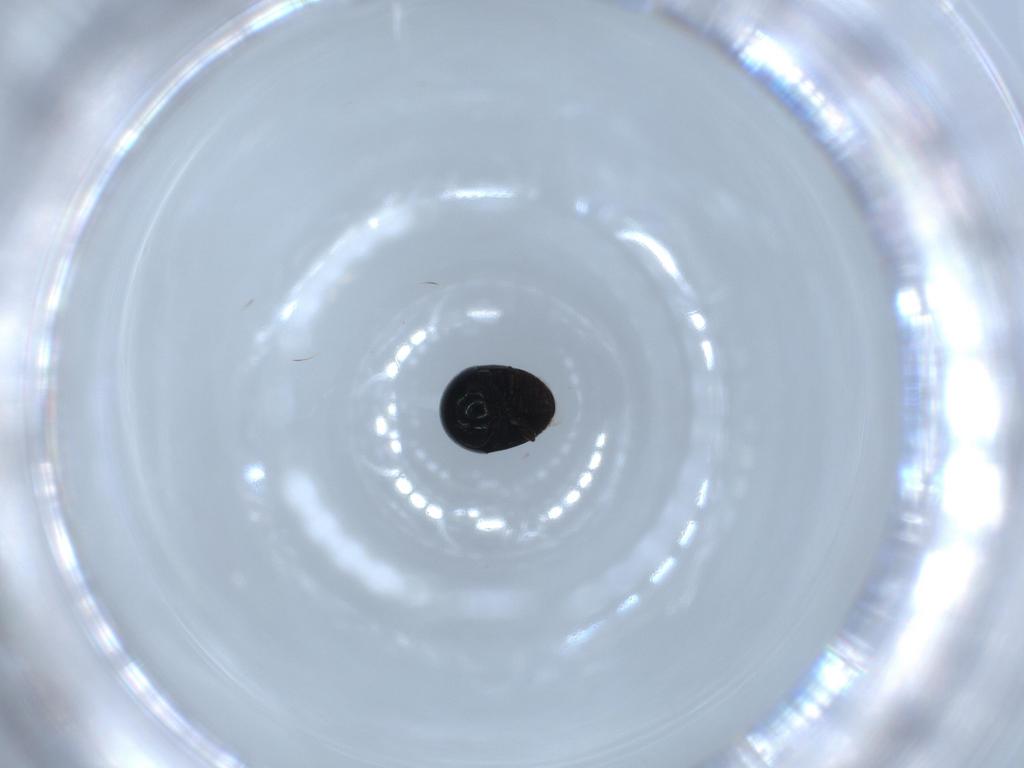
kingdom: Animalia
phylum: Arthropoda
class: Insecta
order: Coleoptera
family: Cybocephalidae
